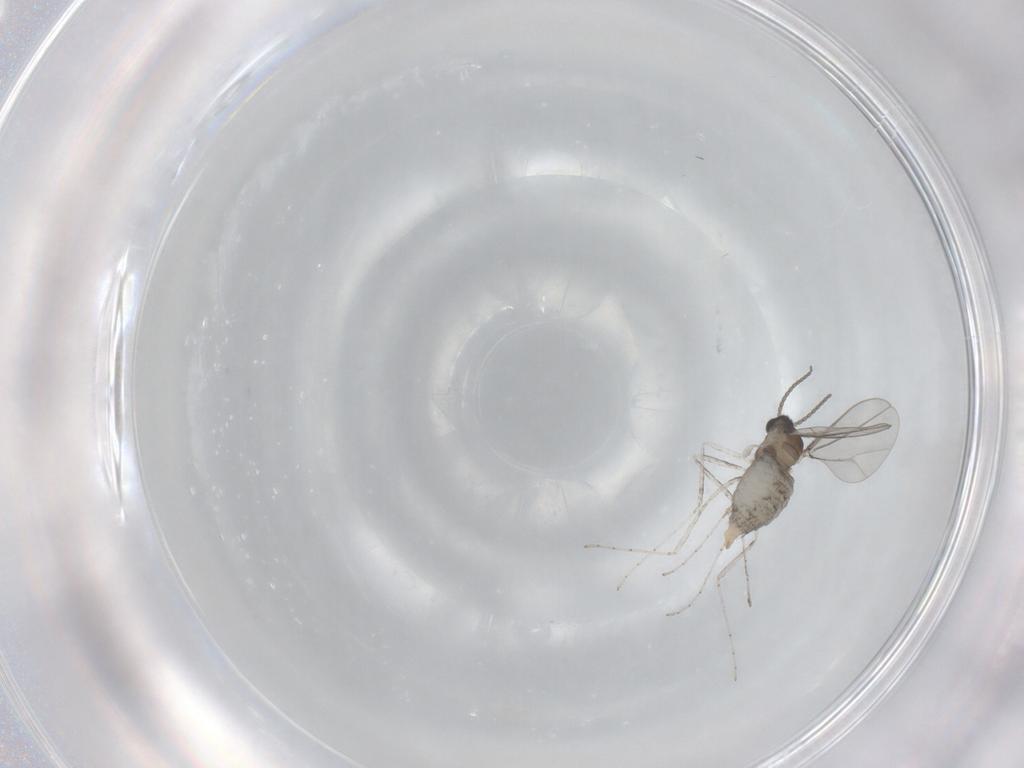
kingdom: Animalia
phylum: Arthropoda
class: Insecta
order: Diptera
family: Cecidomyiidae
